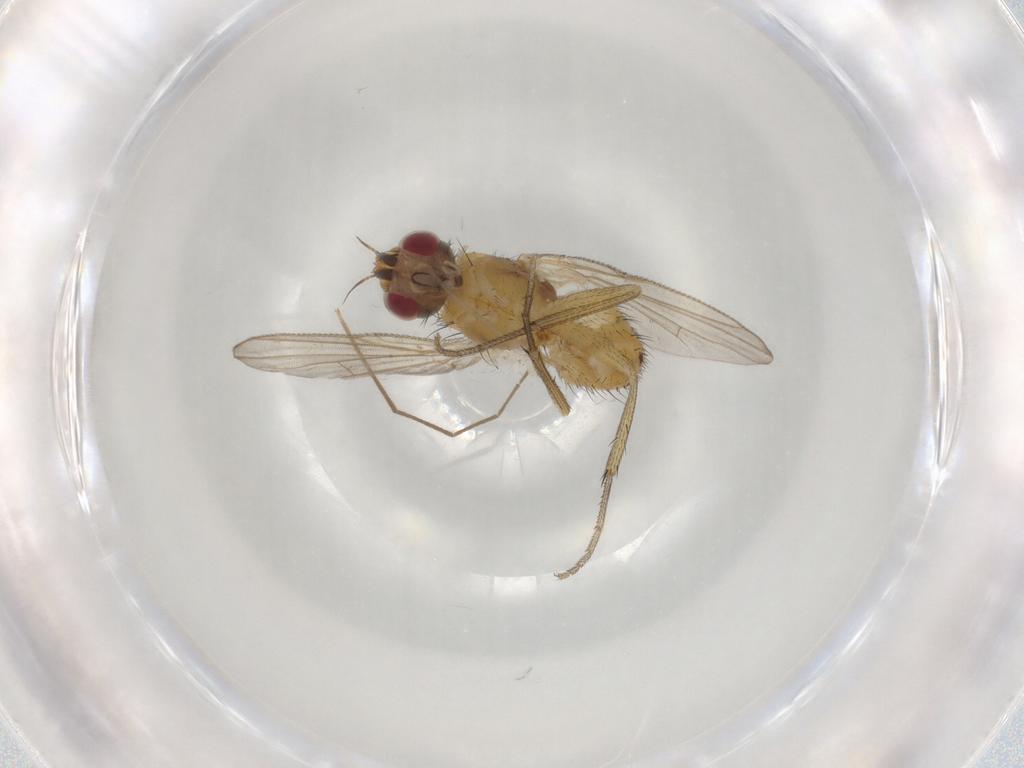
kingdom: Animalia
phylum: Arthropoda
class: Insecta
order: Diptera
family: Muscidae
